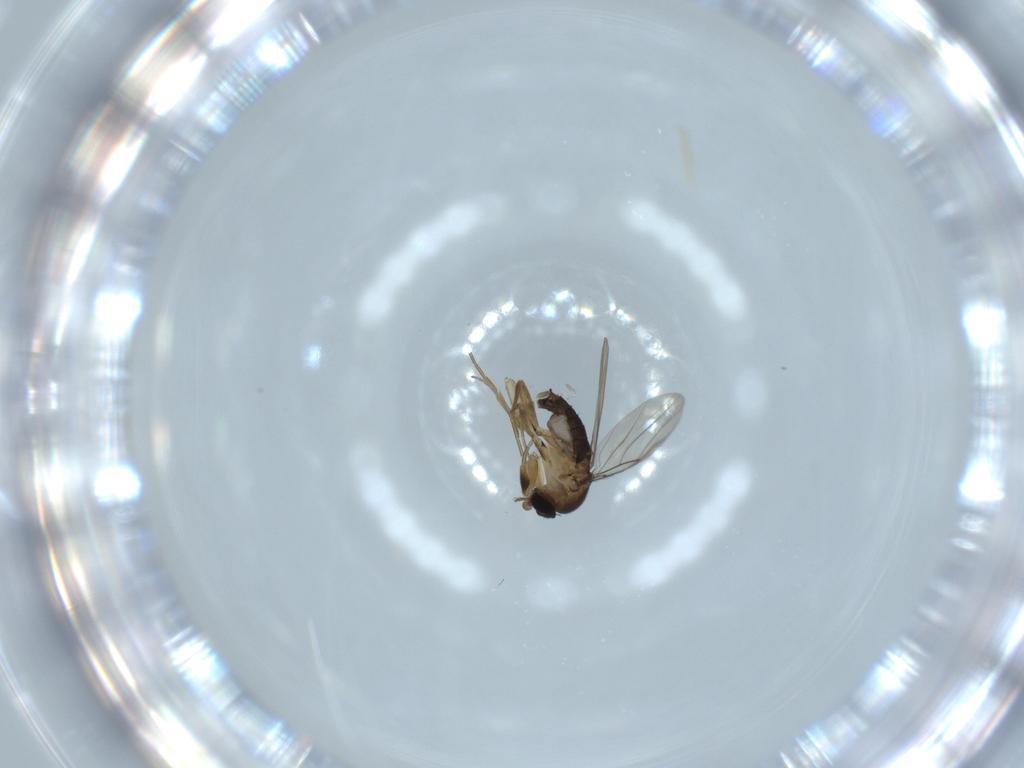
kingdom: Animalia
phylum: Arthropoda
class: Insecta
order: Diptera
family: Phoridae
